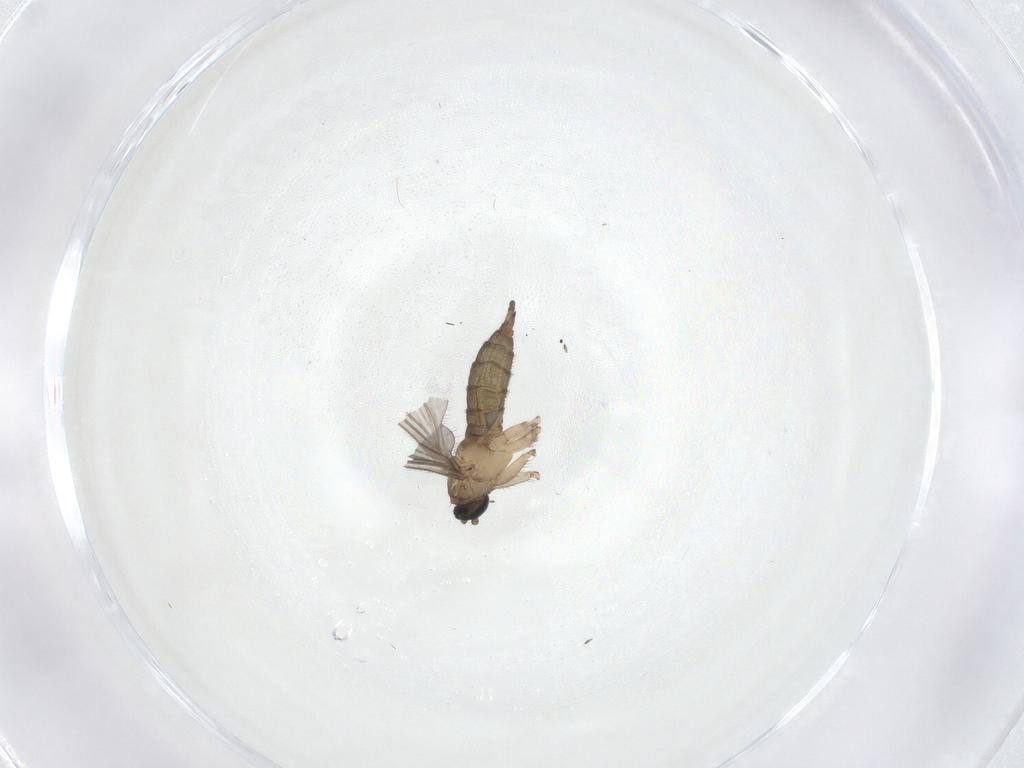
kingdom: Animalia
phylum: Arthropoda
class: Insecta
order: Diptera
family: Sciaridae
